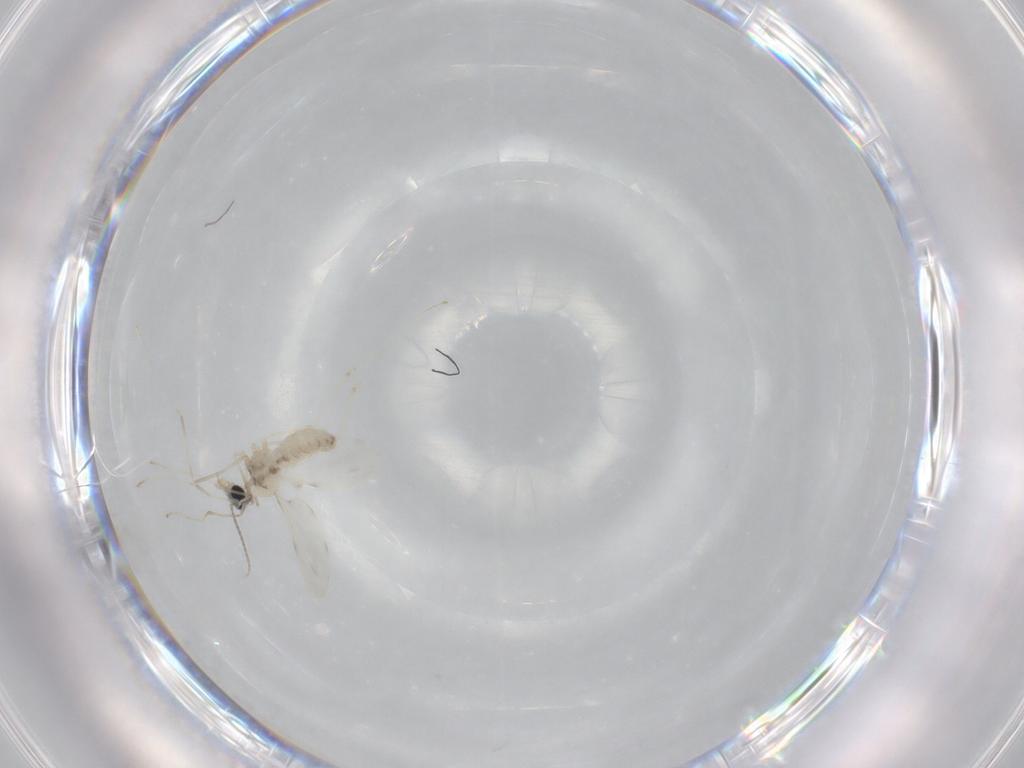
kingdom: Animalia
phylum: Arthropoda
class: Insecta
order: Diptera
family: Cecidomyiidae
